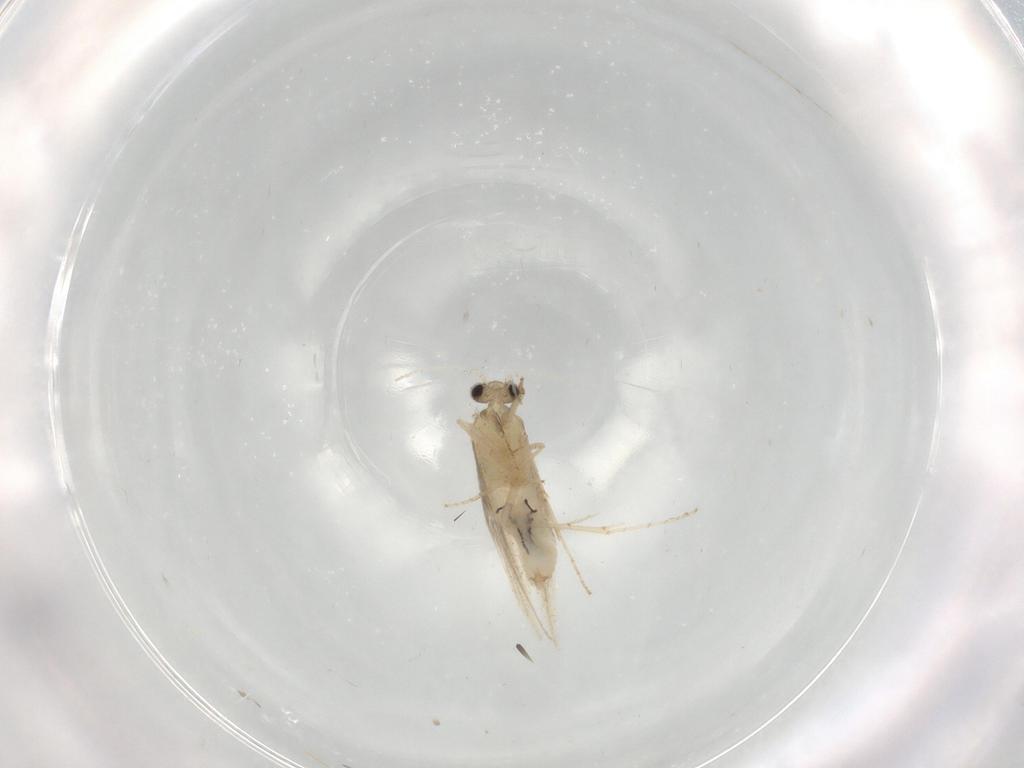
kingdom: Animalia
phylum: Arthropoda
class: Insecta
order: Trichoptera
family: Hydroptilidae
